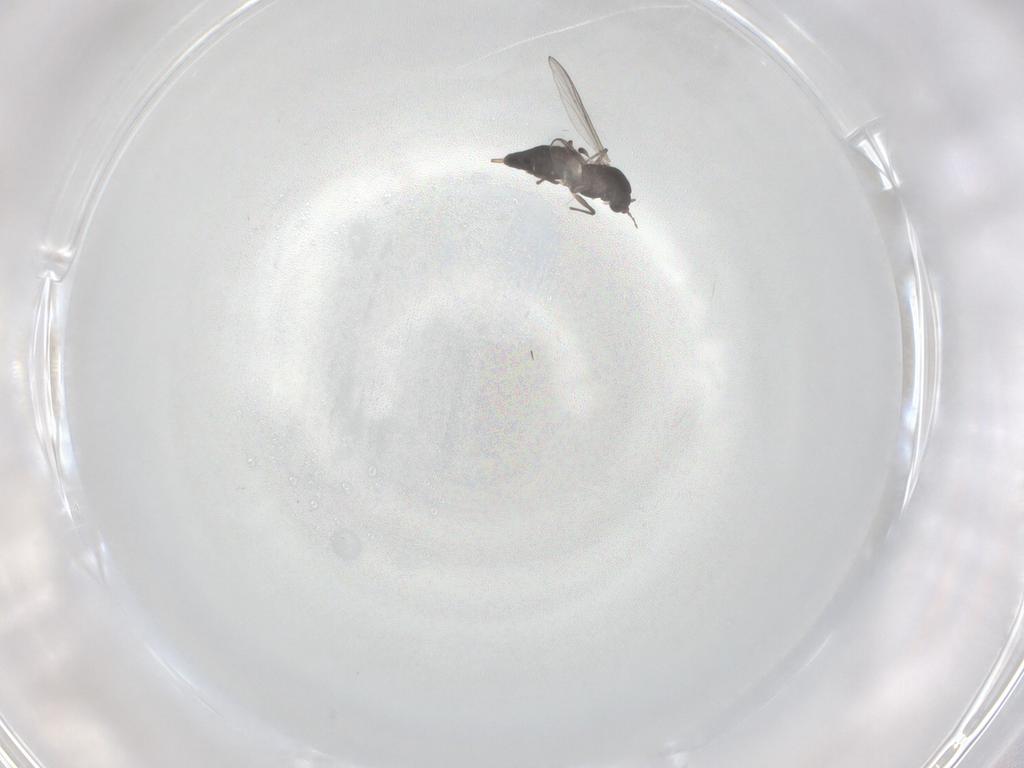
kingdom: Animalia
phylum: Arthropoda
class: Insecta
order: Diptera
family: Chironomidae
